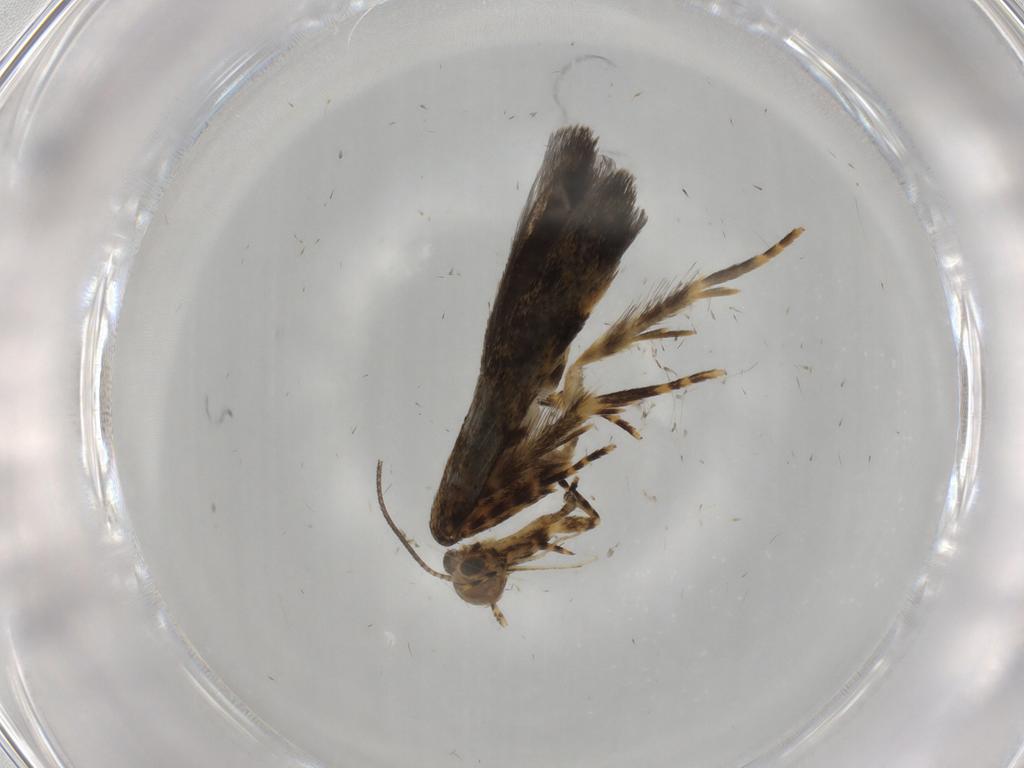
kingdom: Animalia
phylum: Arthropoda
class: Insecta
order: Lepidoptera
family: Oecophoridae
